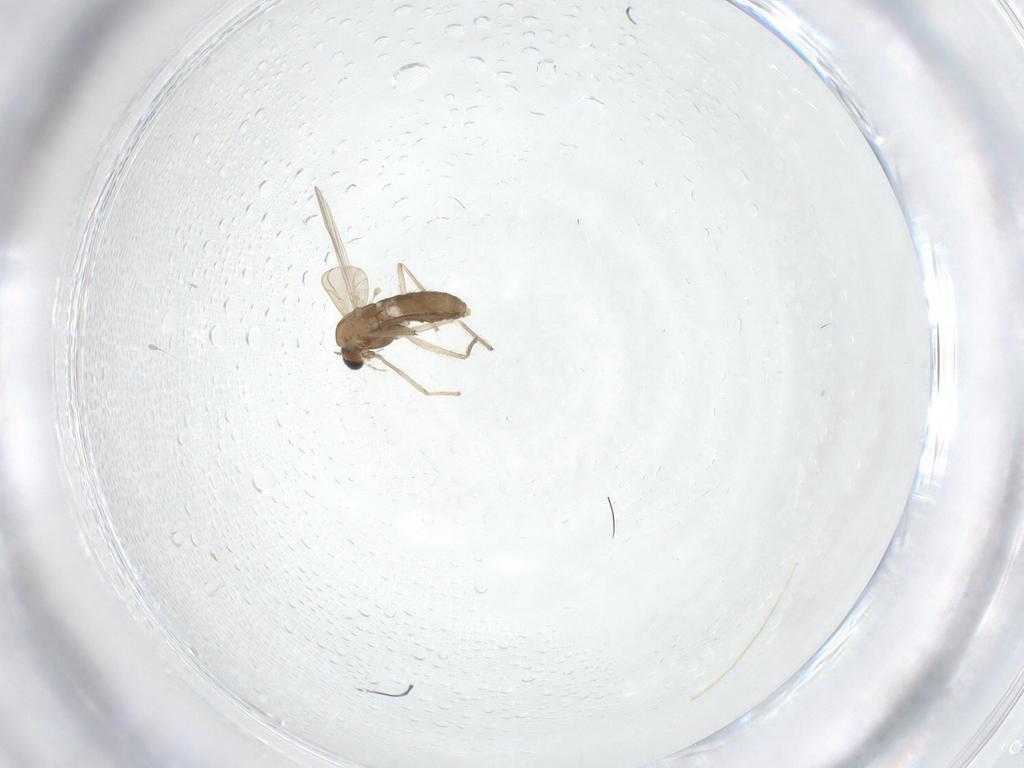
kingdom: Animalia
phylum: Arthropoda
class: Insecta
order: Diptera
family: Chironomidae
